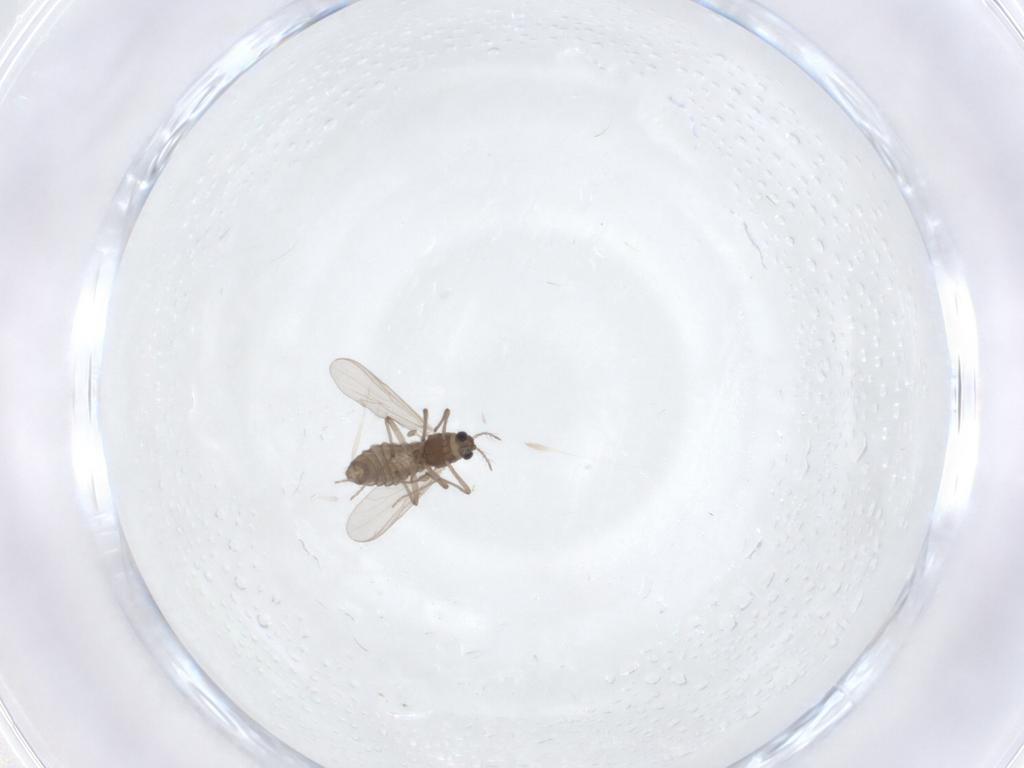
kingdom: Animalia
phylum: Arthropoda
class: Insecta
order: Diptera
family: Chironomidae
